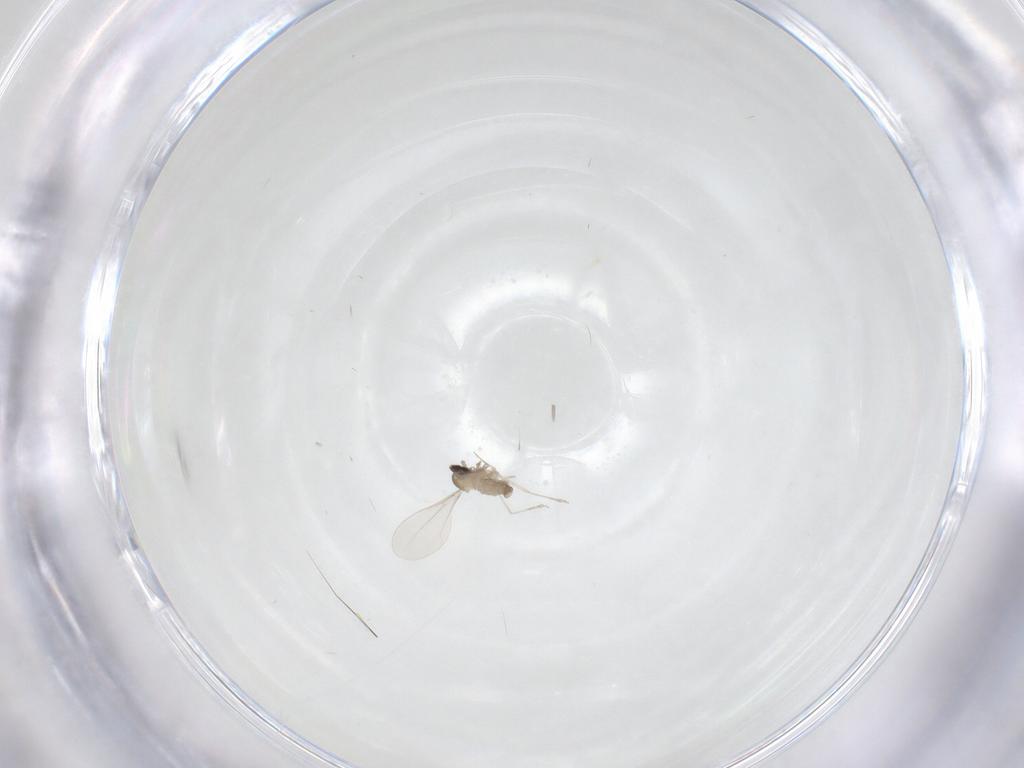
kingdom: Animalia
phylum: Arthropoda
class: Insecta
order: Diptera
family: Cecidomyiidae
